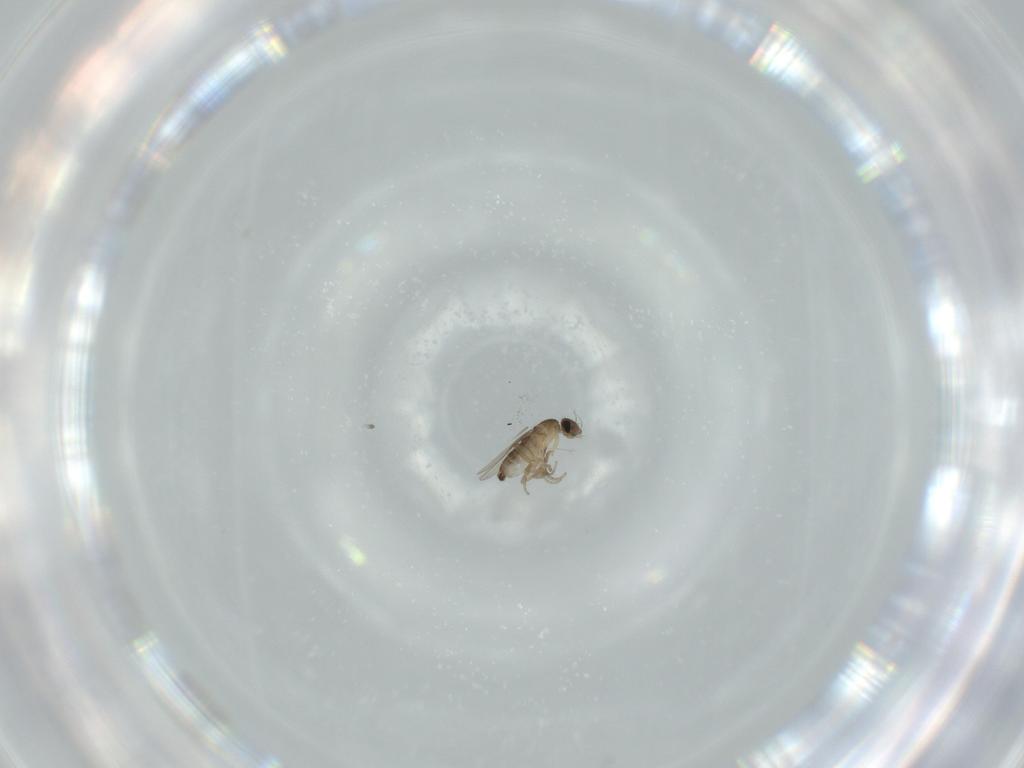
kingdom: Animalia
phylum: Arthropoda
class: Insecta
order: Diptera
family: Phoridae
